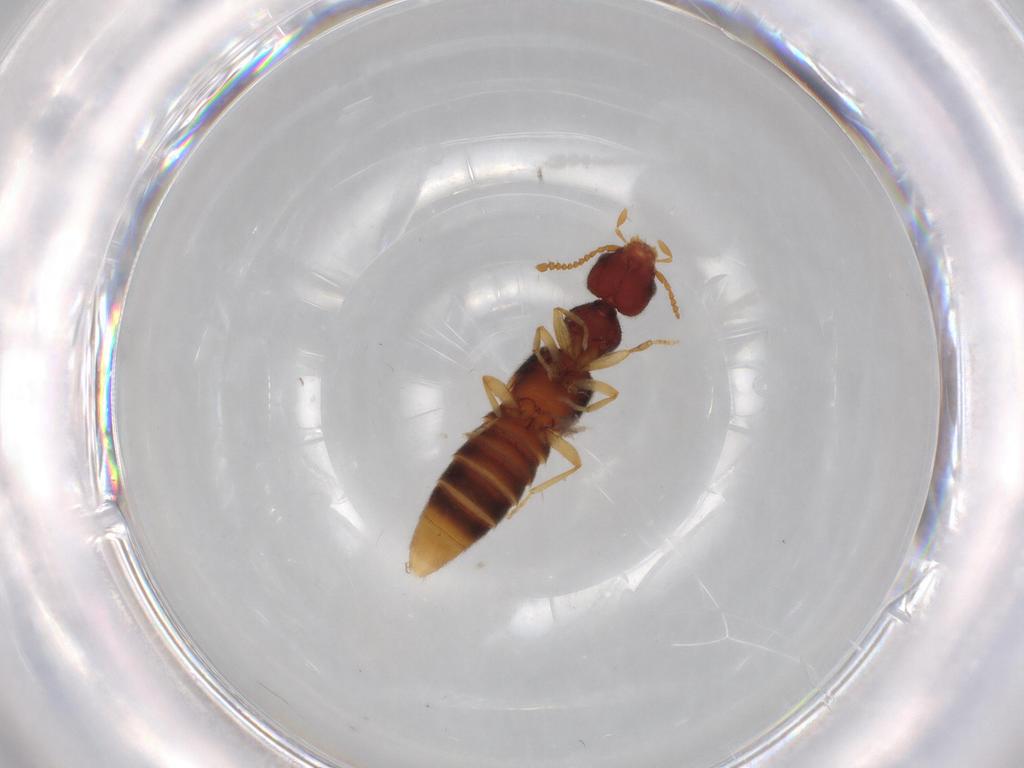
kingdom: Animalia
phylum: Arthropoda
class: Insecta
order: Coleoptera
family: Staphylinidae
